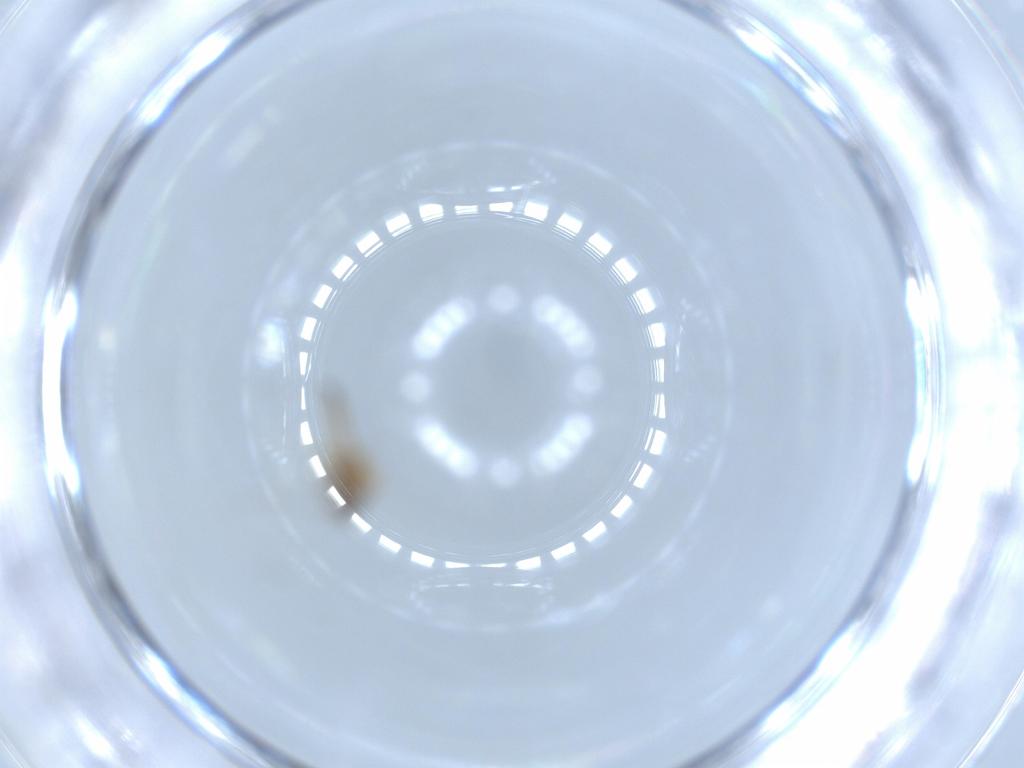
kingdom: Animalia
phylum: Arthropoda
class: Insecta
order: Diptera
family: Ceratopogonidae
